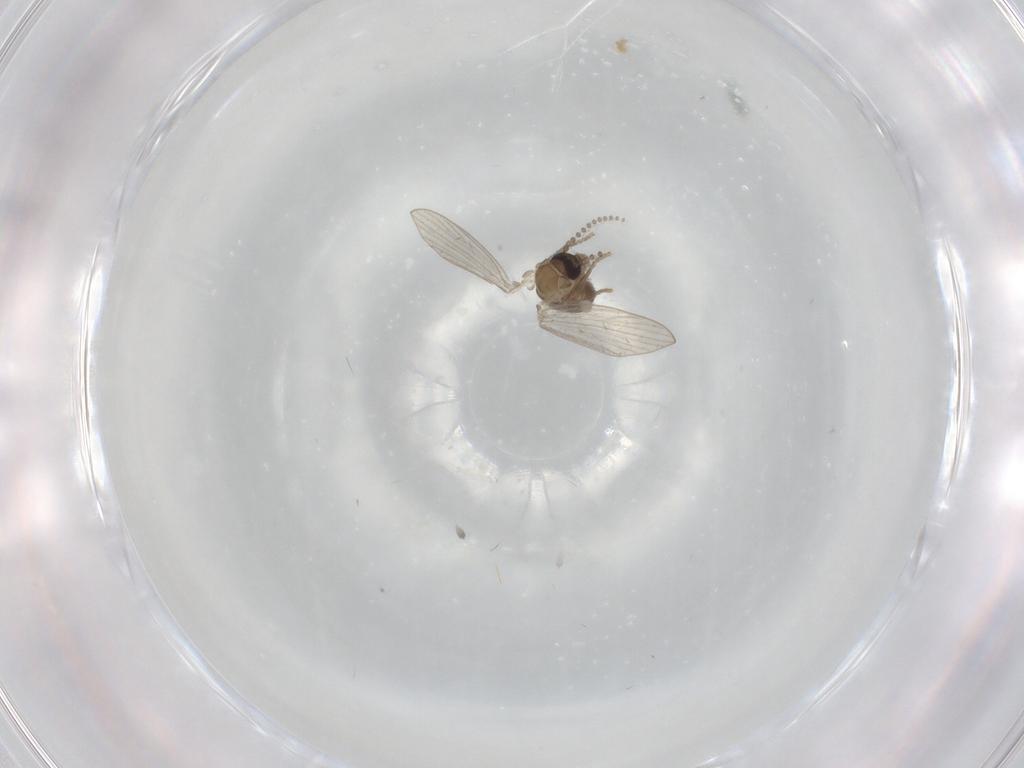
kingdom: Animalia
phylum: Arthropoda
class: Insecta
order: Diptera
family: Psychodidae
